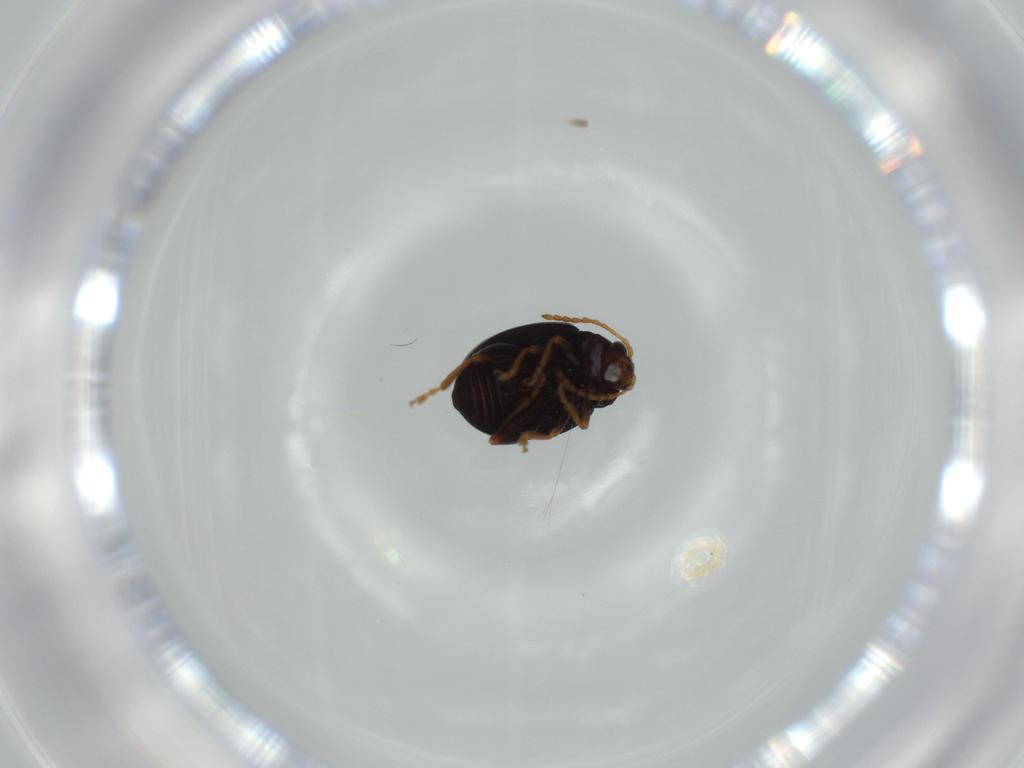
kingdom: Animalia
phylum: Arthropoda
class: Insecta
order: Coleoptera
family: Chrysomelidae
